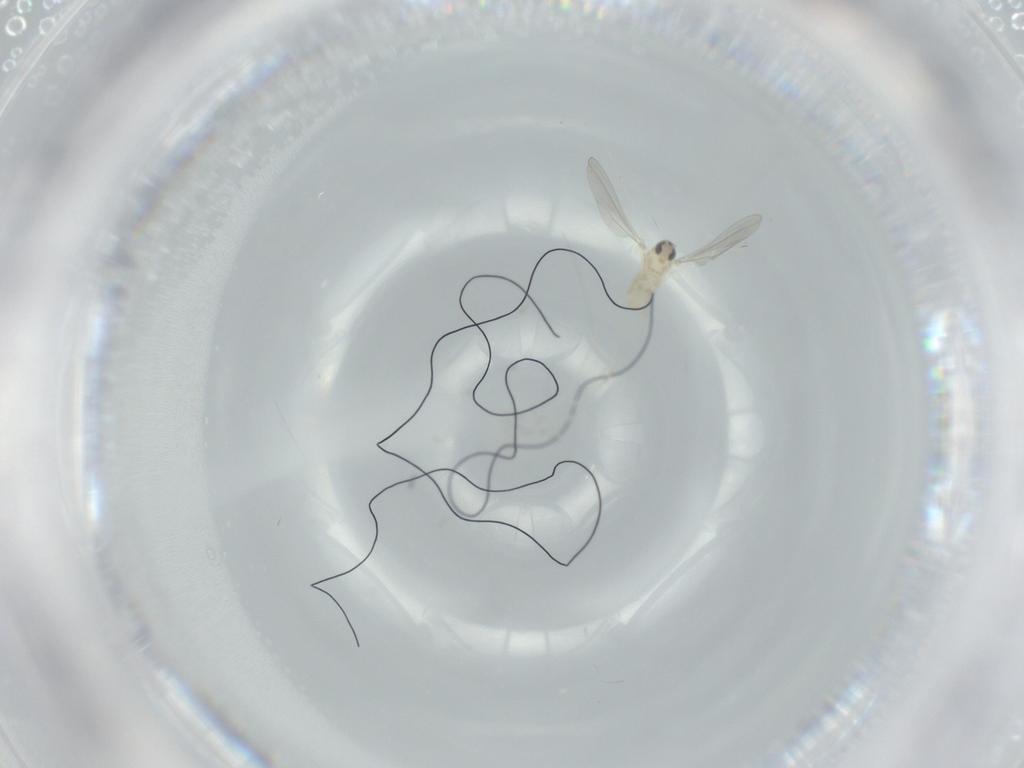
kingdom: Animalia
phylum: Arthropoda
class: Insecta
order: Diptera
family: Cecidomyiidae
